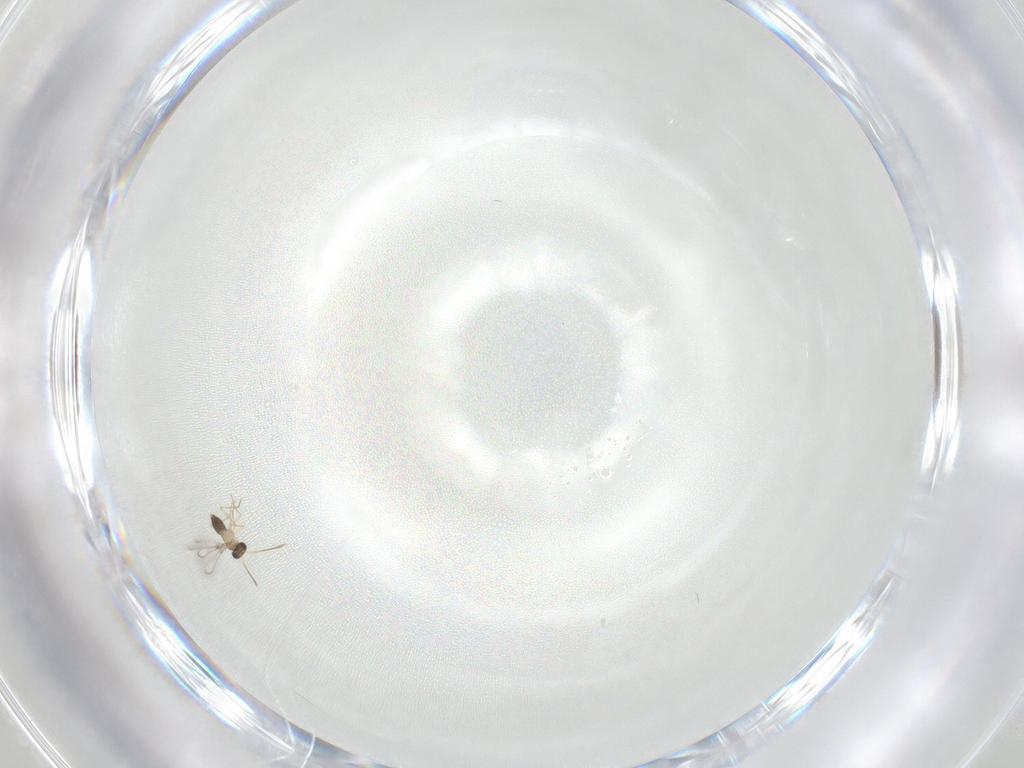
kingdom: Animalia
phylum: Arthropoda
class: Insecta
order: Hymenoptera
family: Mymaridae
